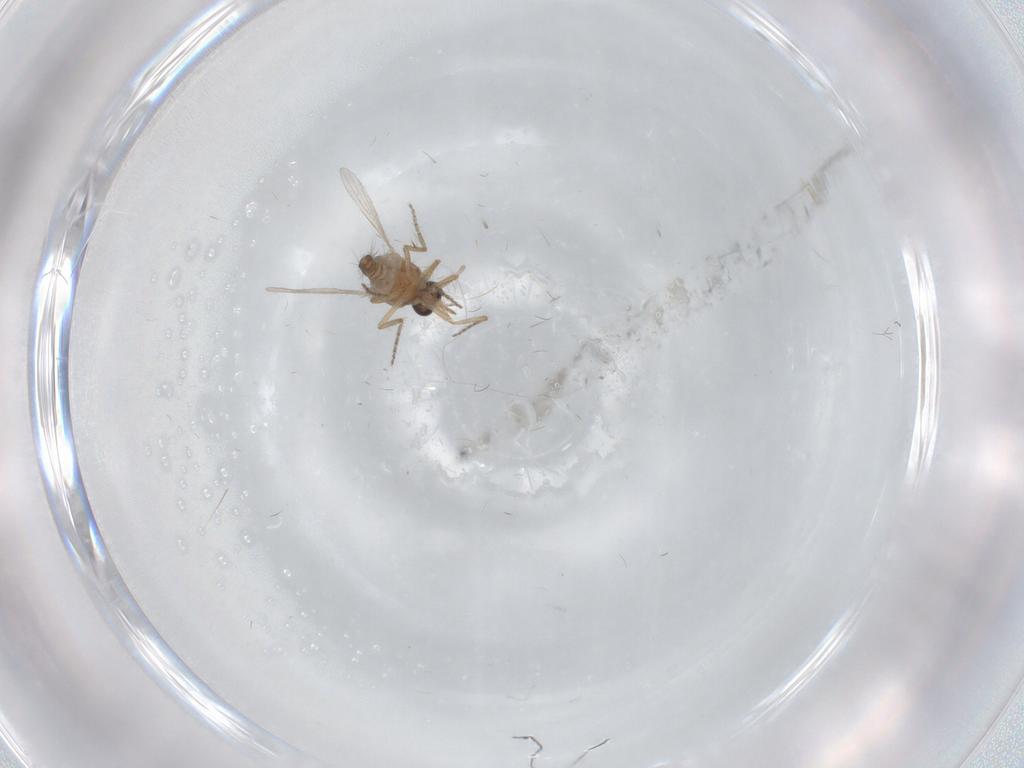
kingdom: Animalia
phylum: Arthropoda
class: Insecta
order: Diptera
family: Ceratopogonidae
